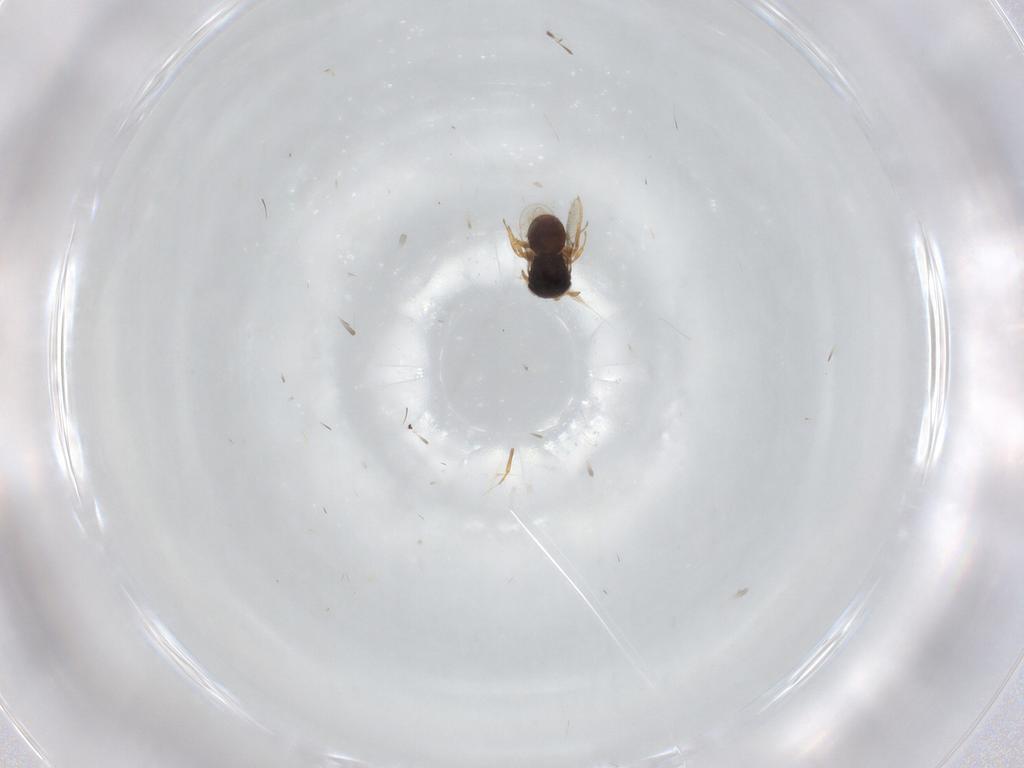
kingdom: Animalia
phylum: Arthropoda
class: Insecta
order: Hymenoptera
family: Scelionidae
